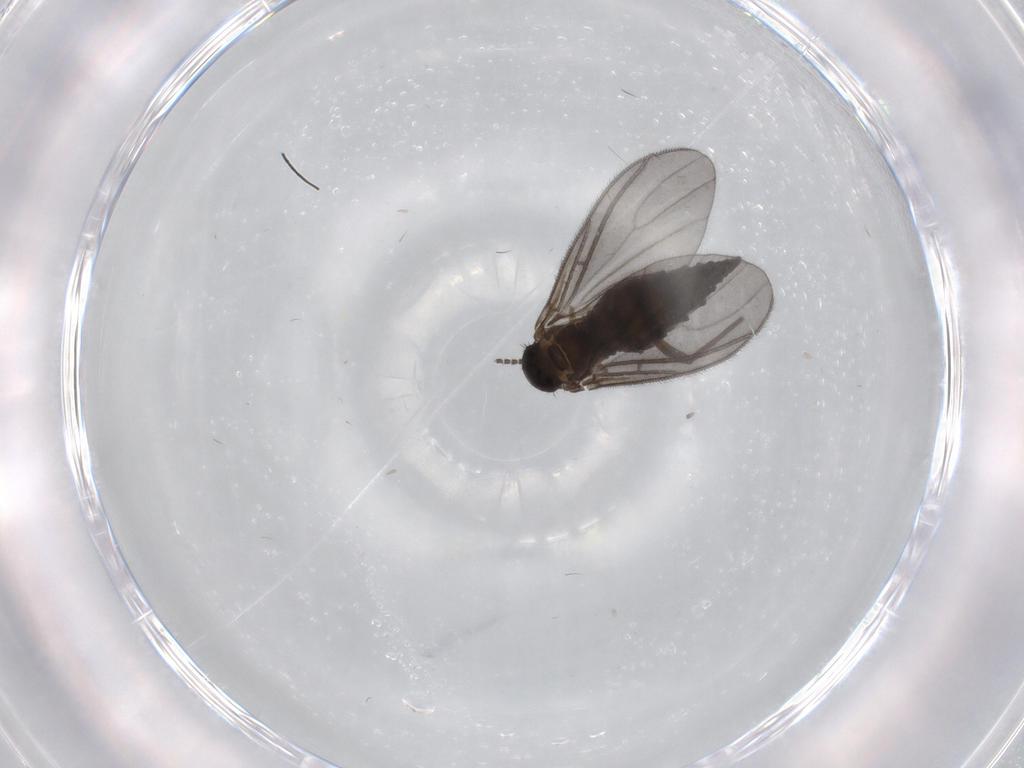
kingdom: Animalia
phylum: Arthropoda
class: Insecta
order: Diptera
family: Sciaridae
